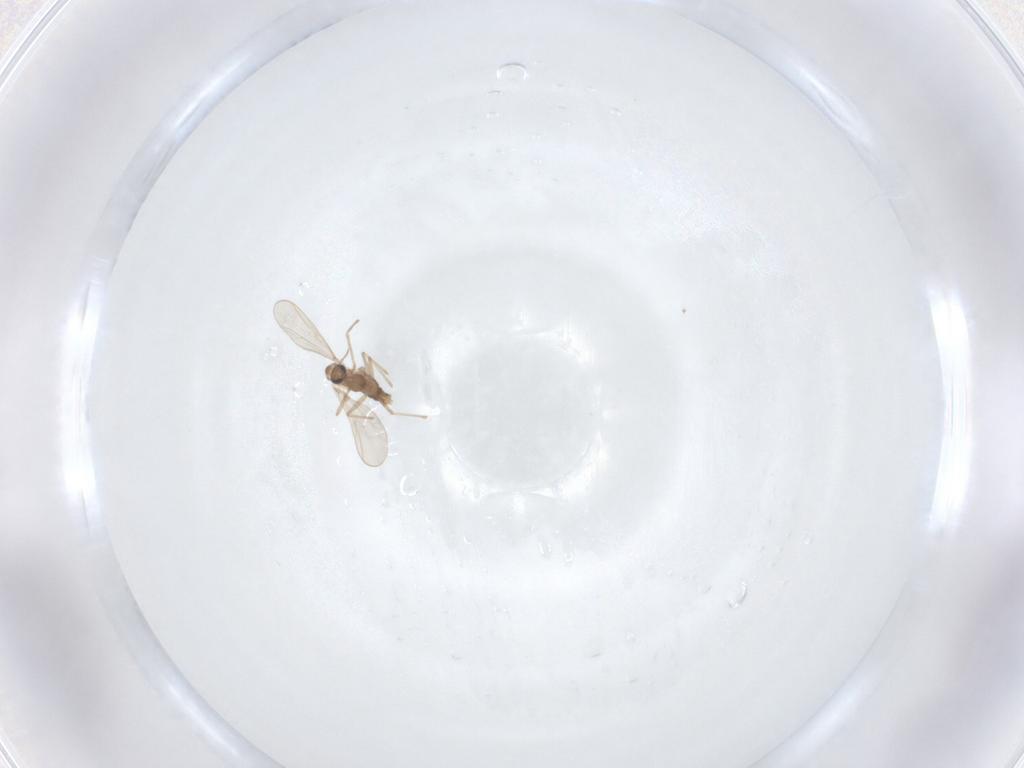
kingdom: Animalia
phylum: Arthropoda
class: Insecta
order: Diptera
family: Chironomidae
